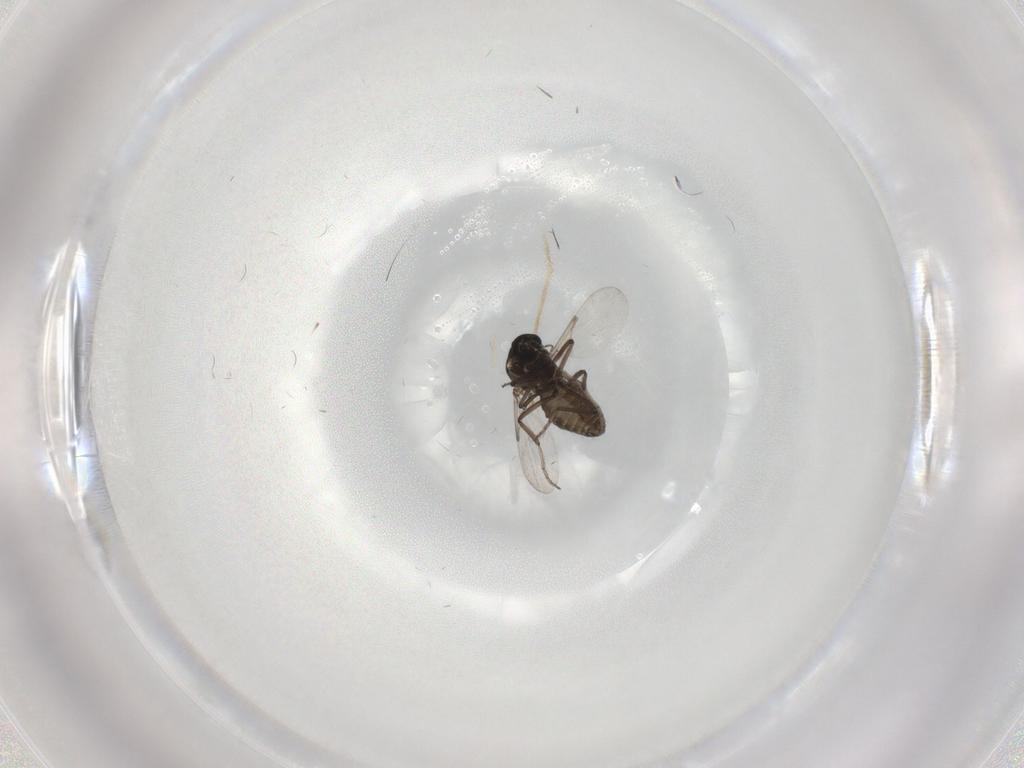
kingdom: Animalia
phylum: Arthropoda
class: Insecta
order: Diptera
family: Ceratopogonidae
